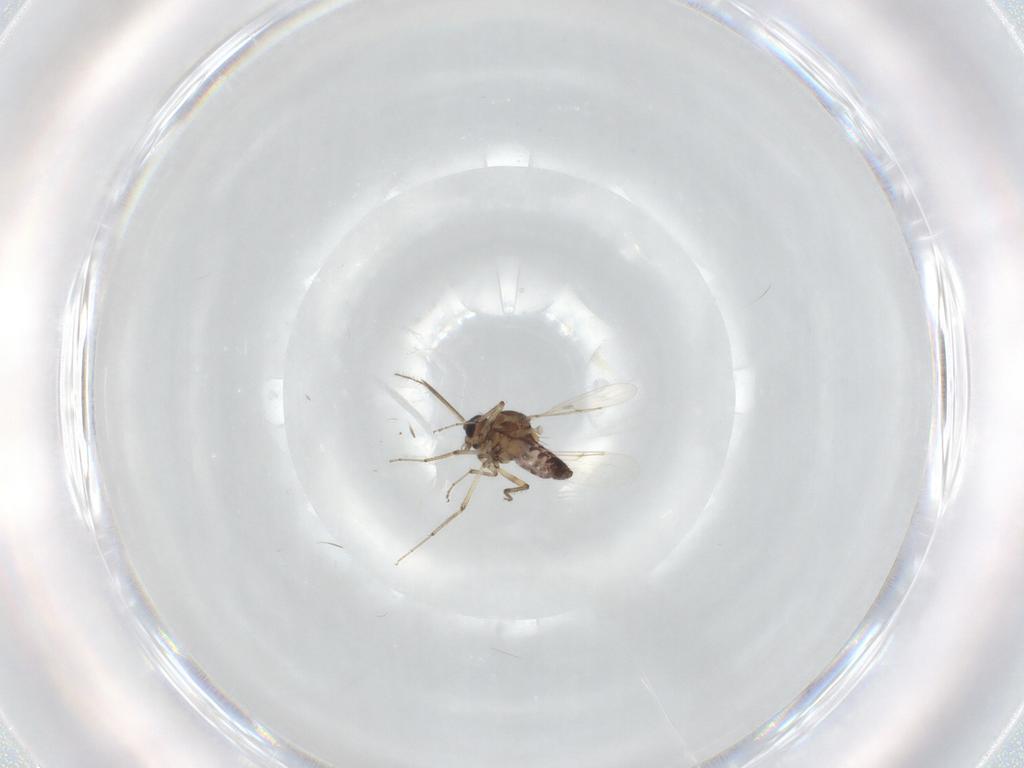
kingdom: Animalia
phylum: Arthropoda
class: Insecta
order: Diptera
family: Ceratopogonidae
